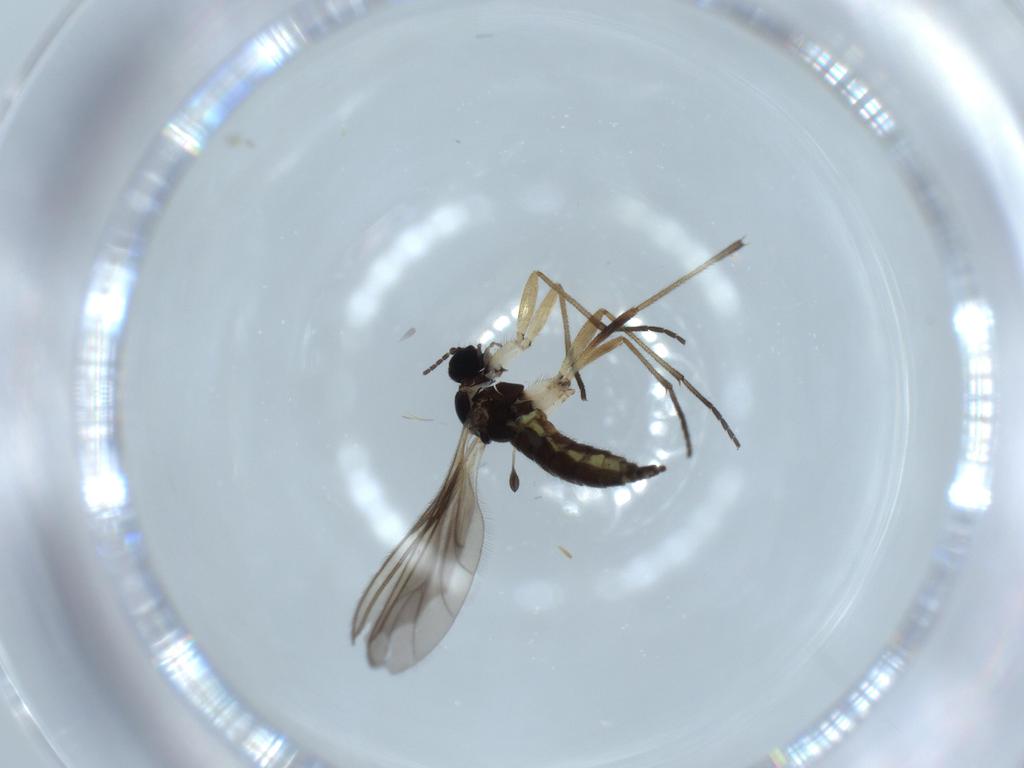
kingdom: Animalia
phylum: Arthropoda
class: Insecta
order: Diptera
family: Sciaridae
